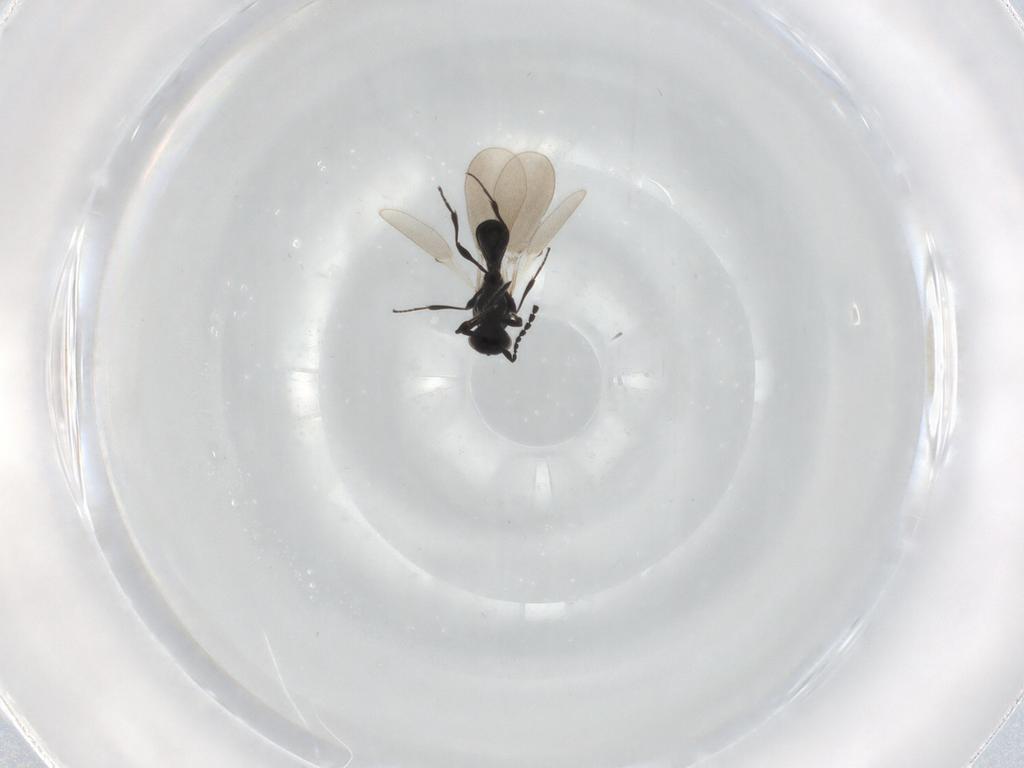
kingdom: Animalia
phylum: Arthropoda
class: Insecta
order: Hymenoptera
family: Platygastridae
